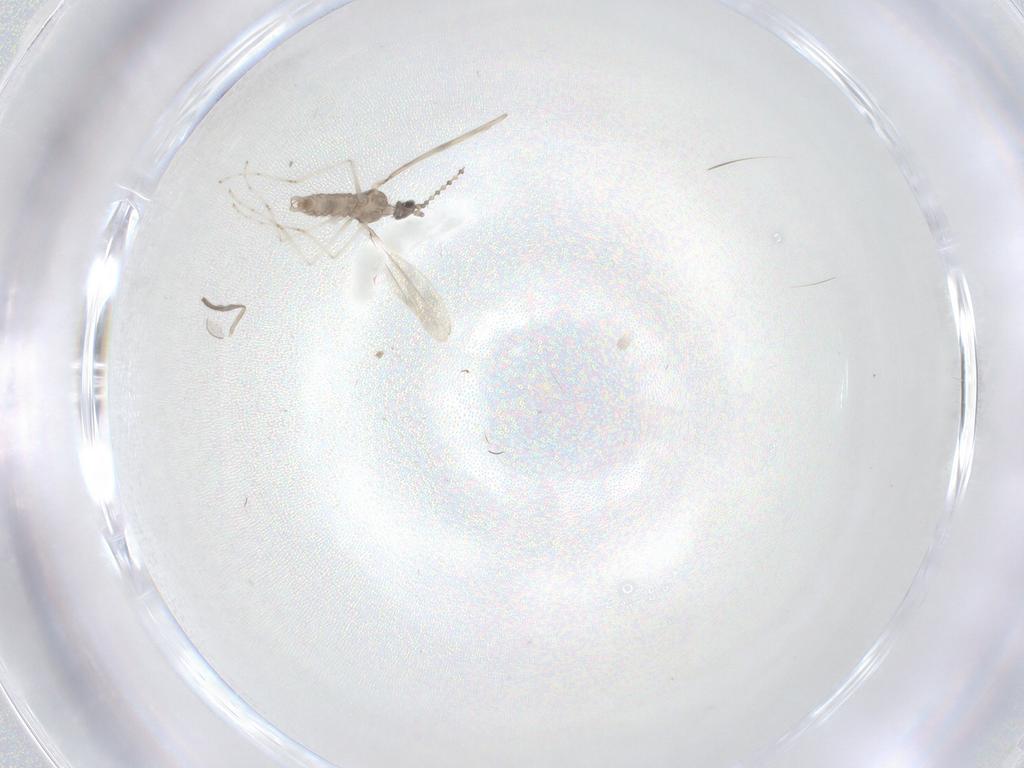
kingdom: Animalia
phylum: Arthropoda
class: Insecta
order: Diptera
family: Cecidomyiidae
